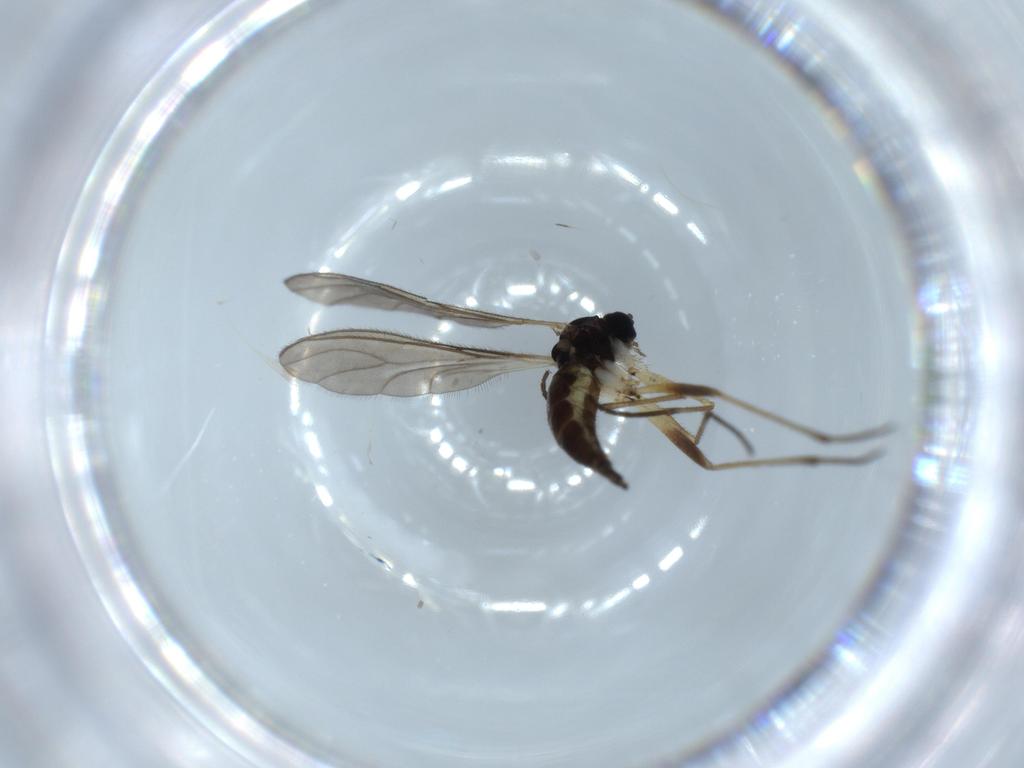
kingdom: Animalia
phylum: Arthropoda
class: Insecta
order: Diptera
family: Sciaridae
